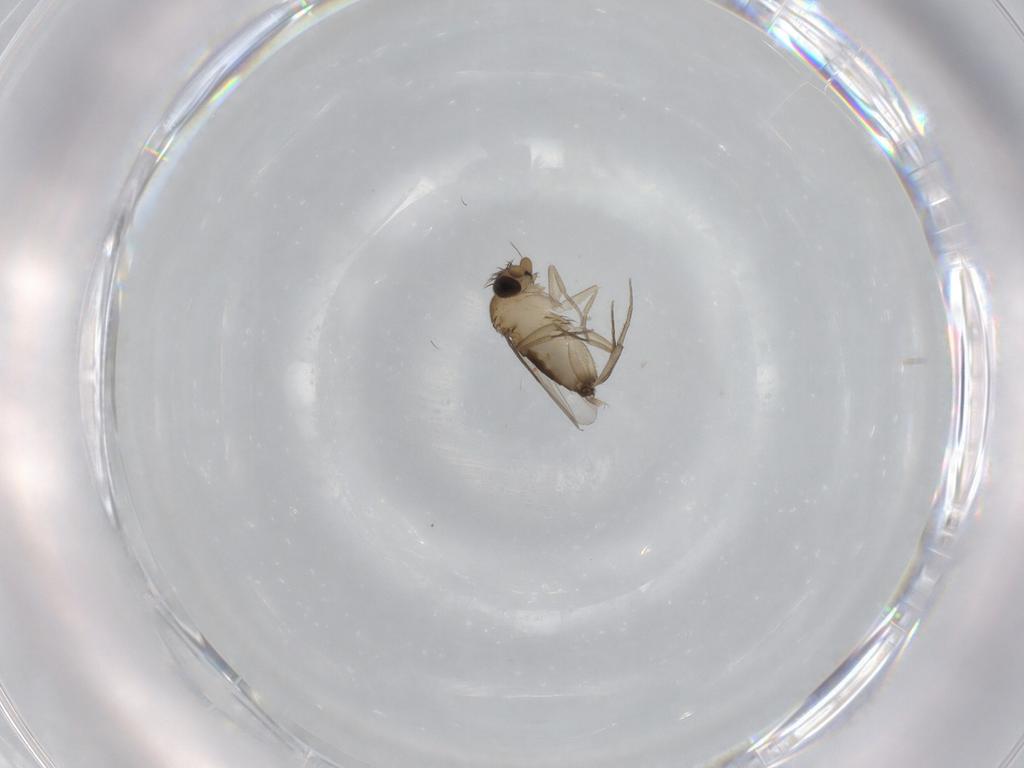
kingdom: Animalia
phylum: Arthropoda
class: Insecta
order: Diptera
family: Phoridae
